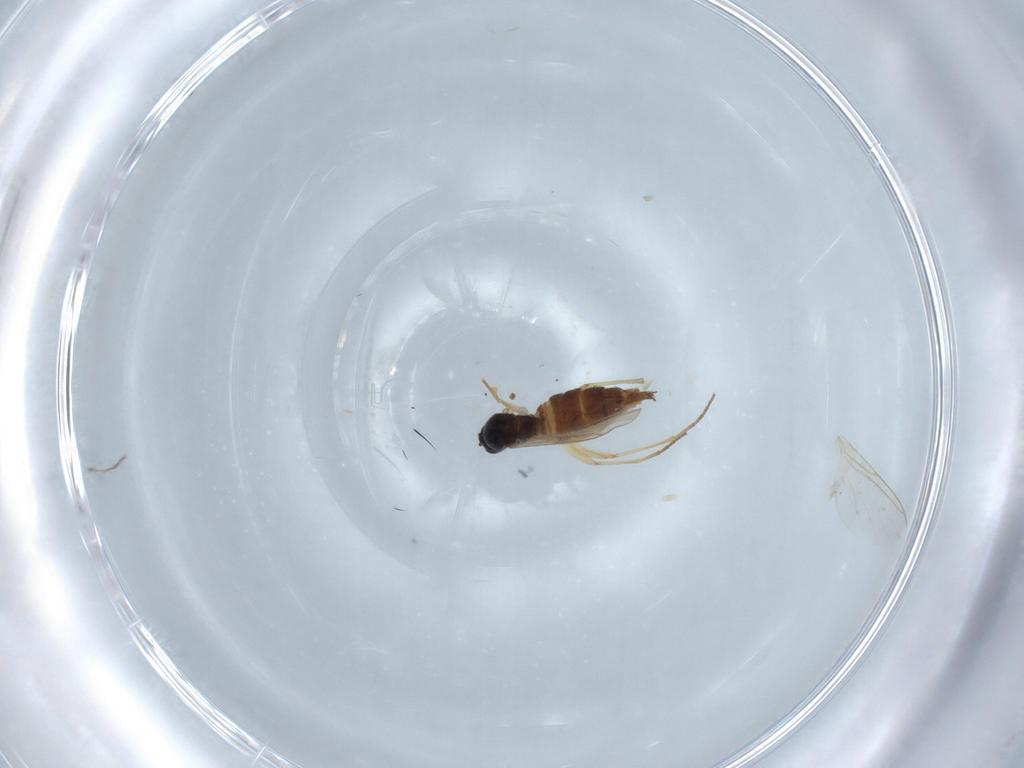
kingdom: Animalia
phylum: Arthropoda
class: Insecta
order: Diptera
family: Sciaridae
